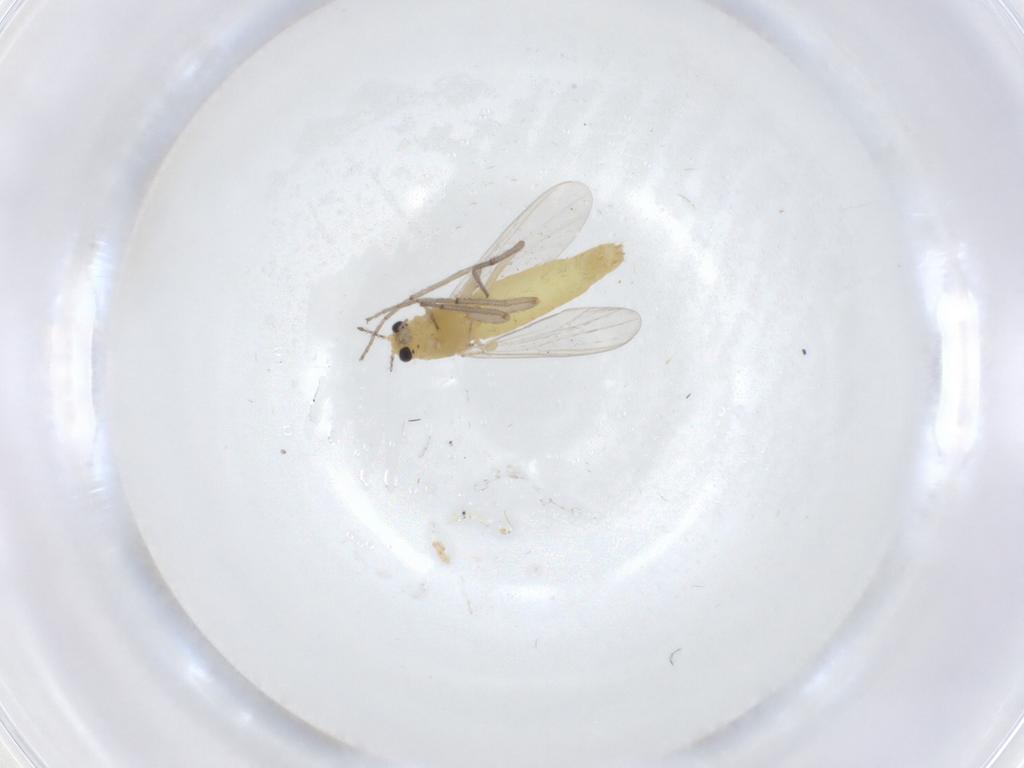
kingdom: Animalia
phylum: Arthropoda
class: Insecta
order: Diptera
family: Chironomidae
